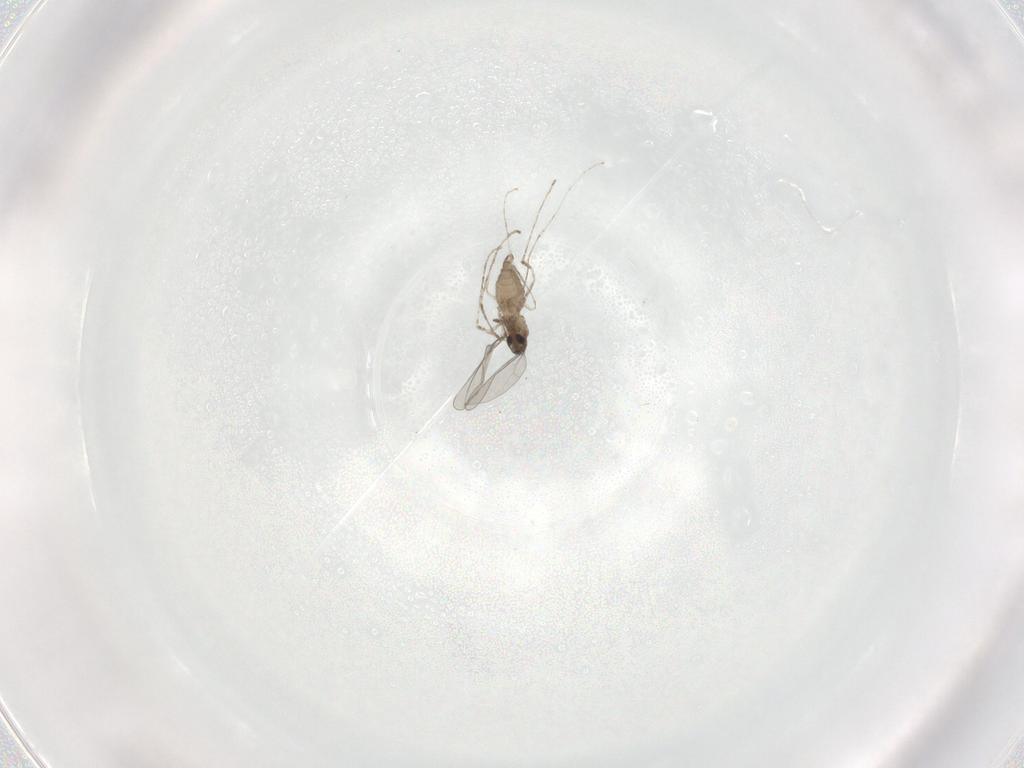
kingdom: Animalia
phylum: Arthropoda
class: Insecta
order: Diptera
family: Cecidomyiidae
